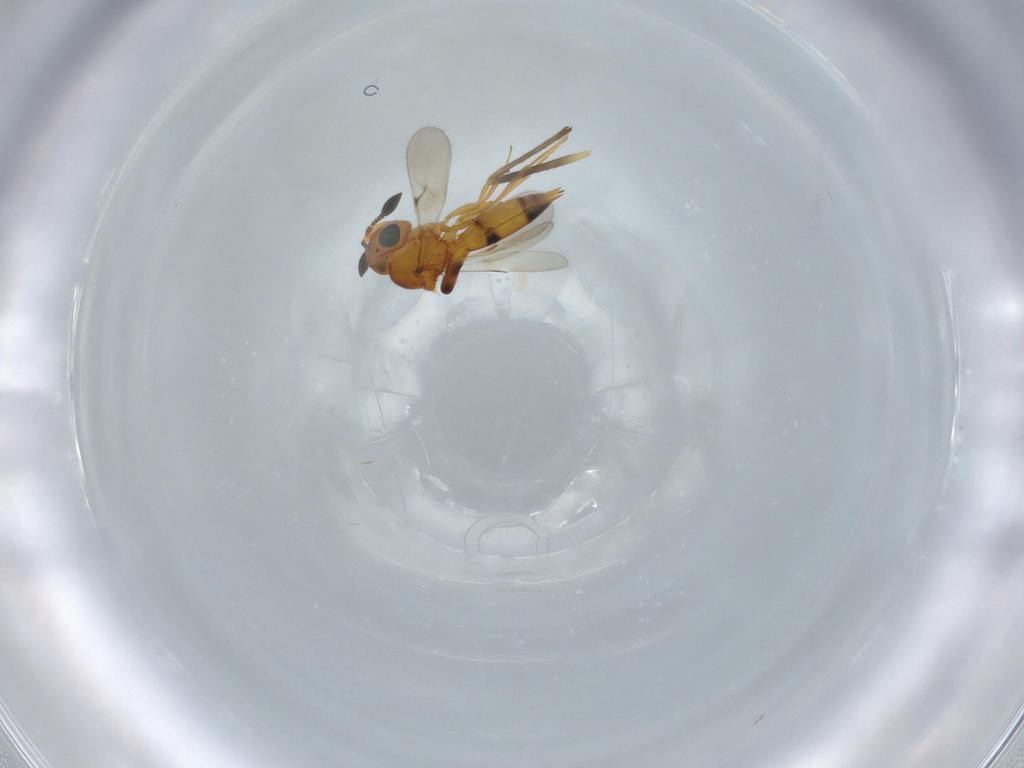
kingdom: Animalia
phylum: Arthropoda
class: Insecta
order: Hymenoptera
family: Scelionidae
